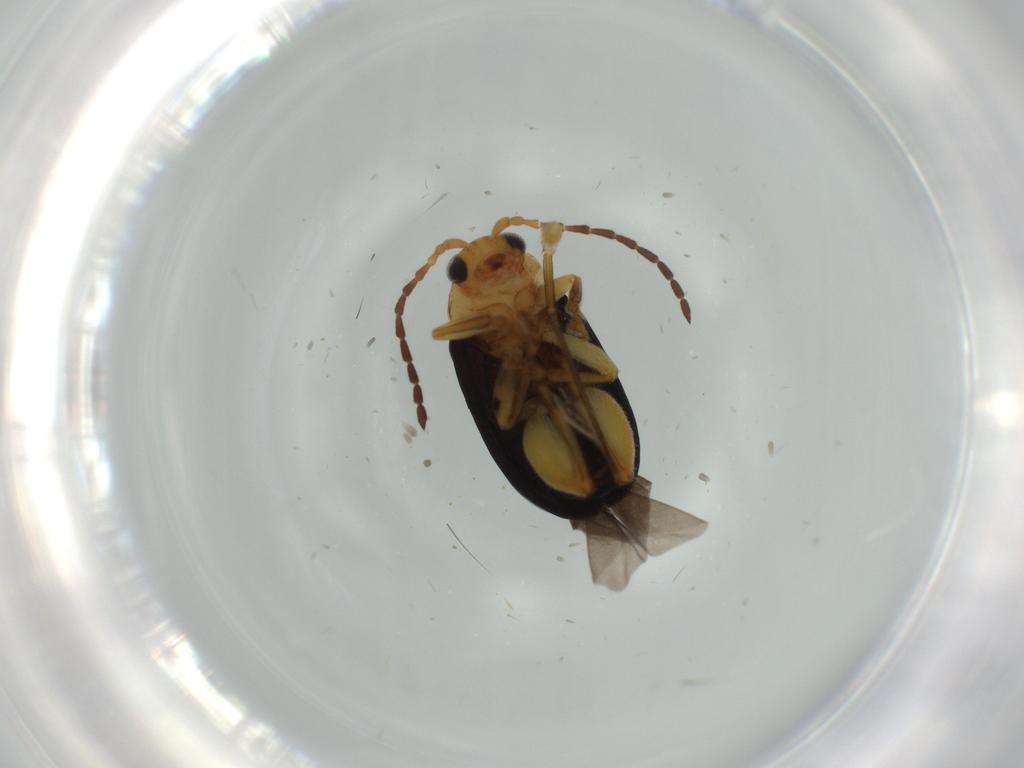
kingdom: Animalia
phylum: Arthropoda
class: Insecta
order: Coleoptera
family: Chrysomelidae
